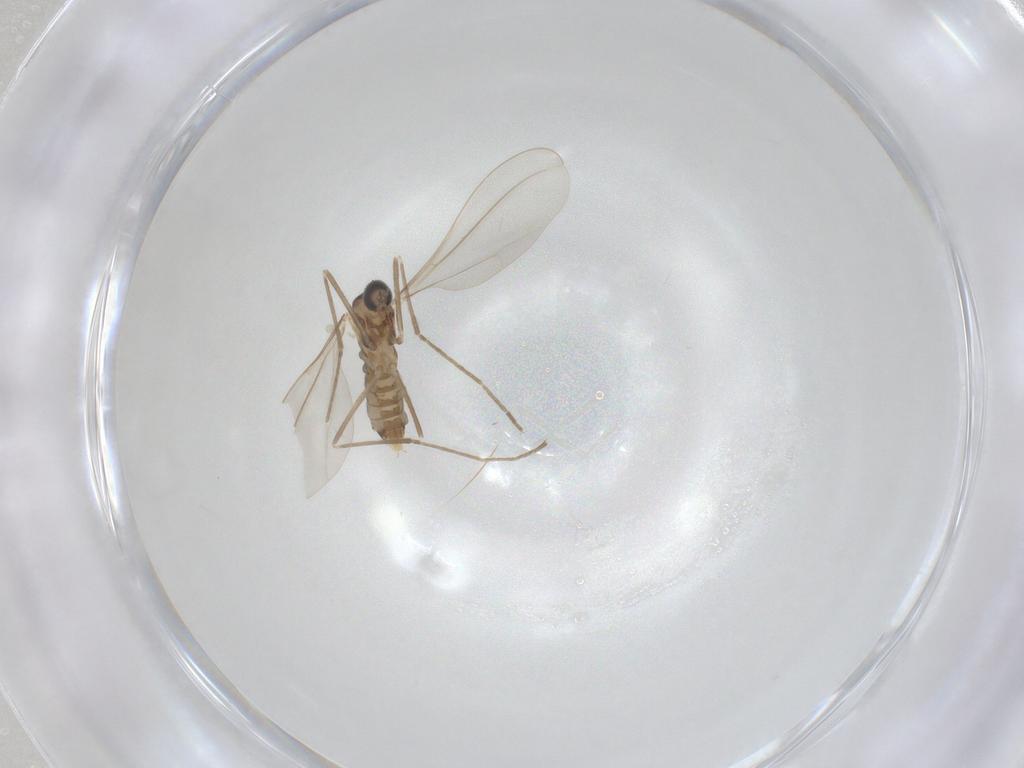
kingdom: Animalia
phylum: Arthropoda
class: Insecta
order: Diptera
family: Cecidomyiidae
